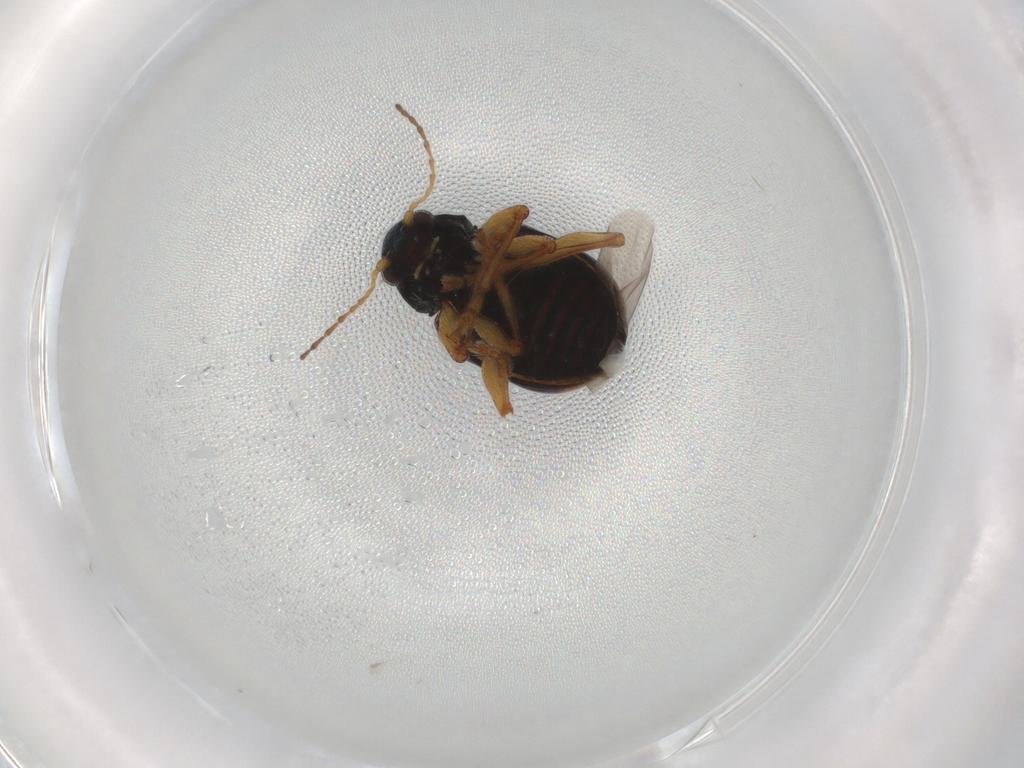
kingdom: Animalia
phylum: Arthropoda
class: Insecta
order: Coleoptera
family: Chrysomelidae
